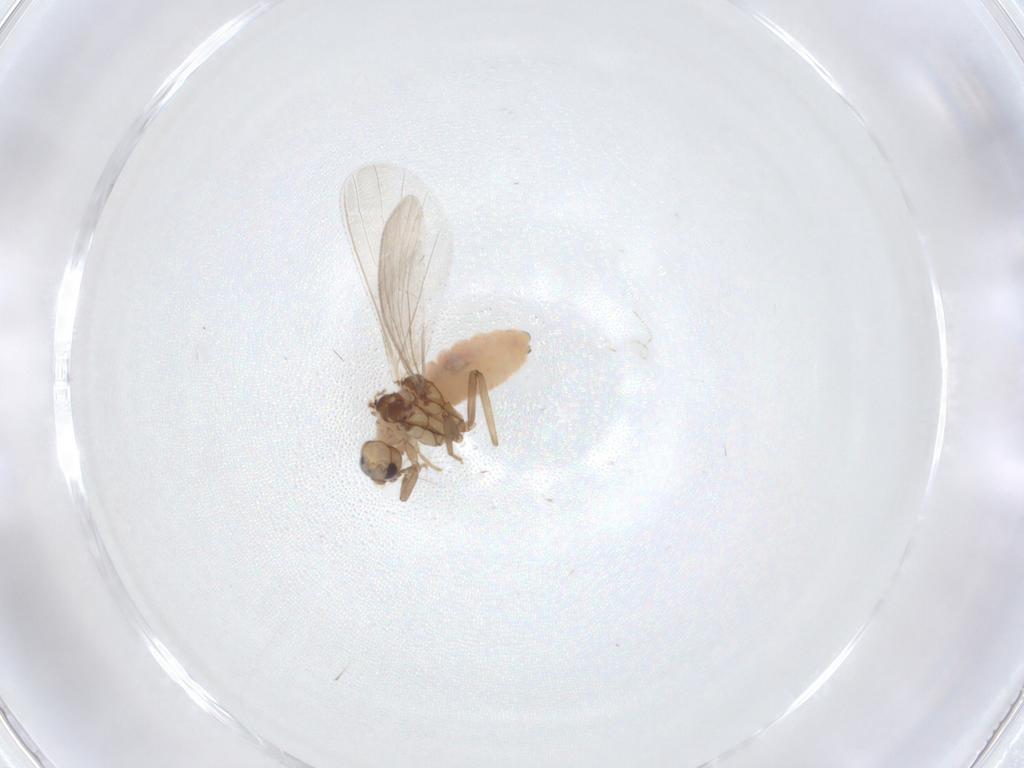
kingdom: Animalia
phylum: Arthropoda
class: Insecta
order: Neuroptera
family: Coniopterygidae
